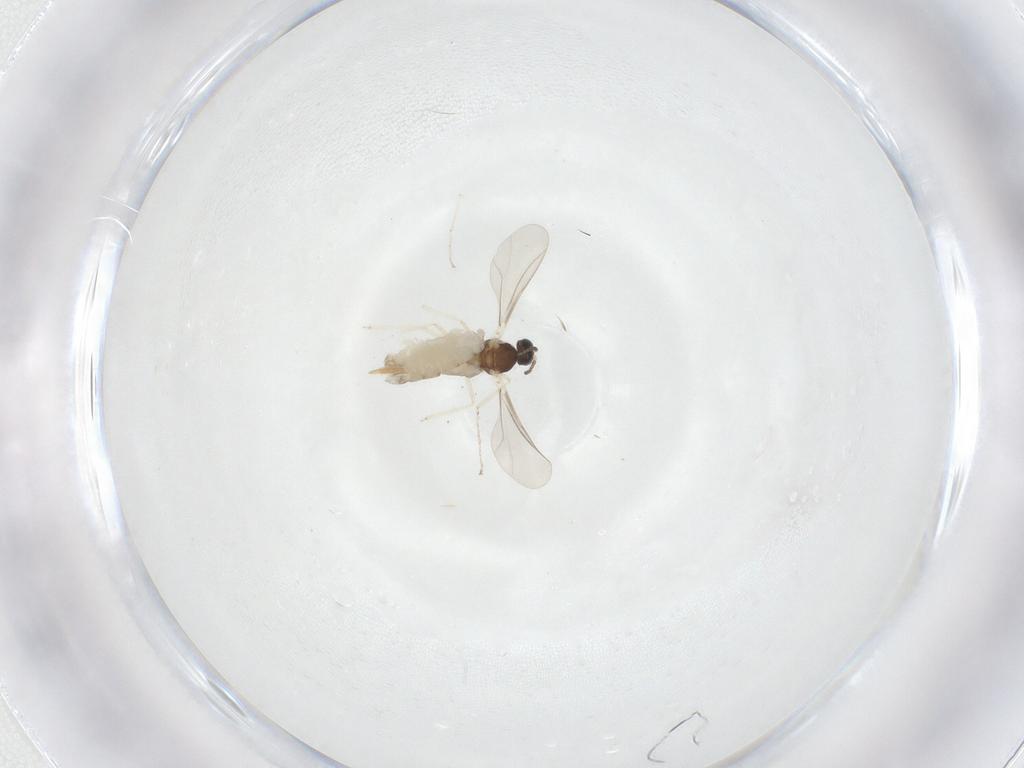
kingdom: Animalia
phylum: Arthropoda
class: Insecta
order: Diptera
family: Cecidomyiidae
